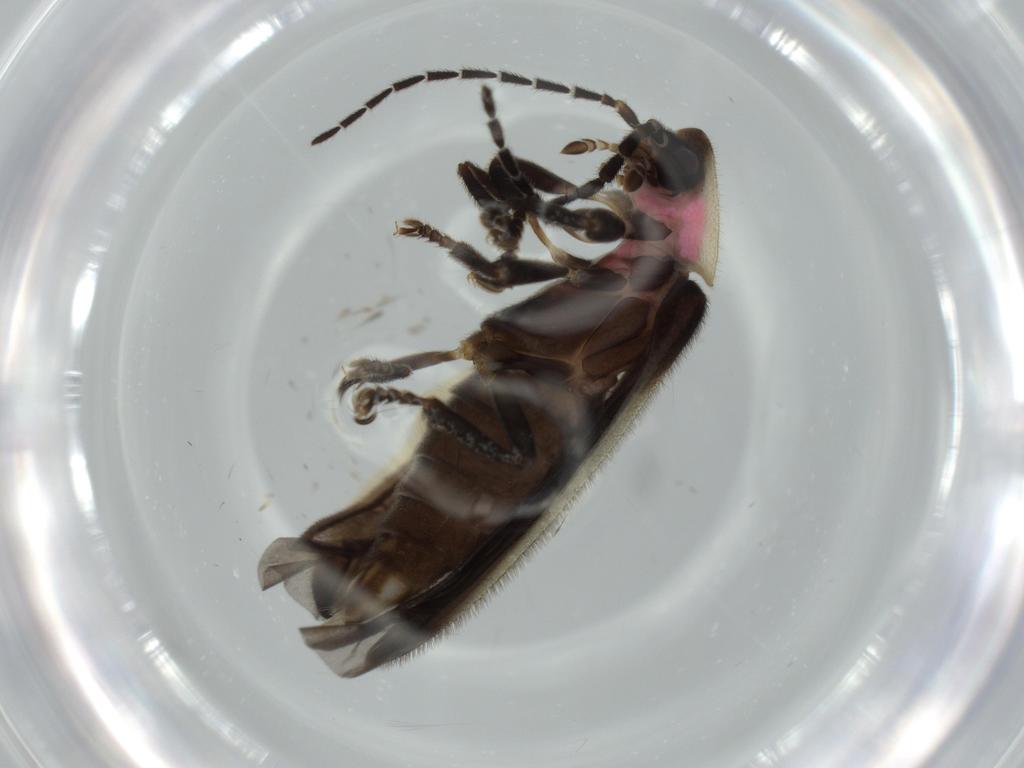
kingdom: Animalia
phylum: Arthropoda
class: Insecta
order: Coleoptera
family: Lampyridae
